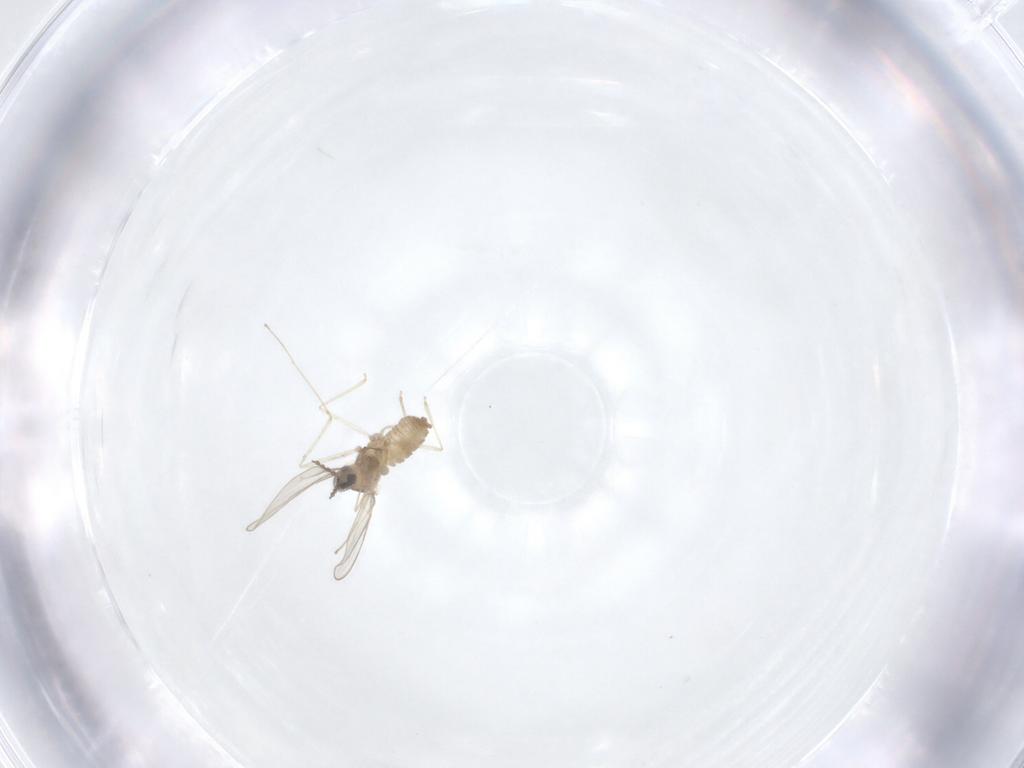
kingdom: Animalia
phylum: Arthropoda
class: Insecta
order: Diptera
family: Cecidomyiidae
